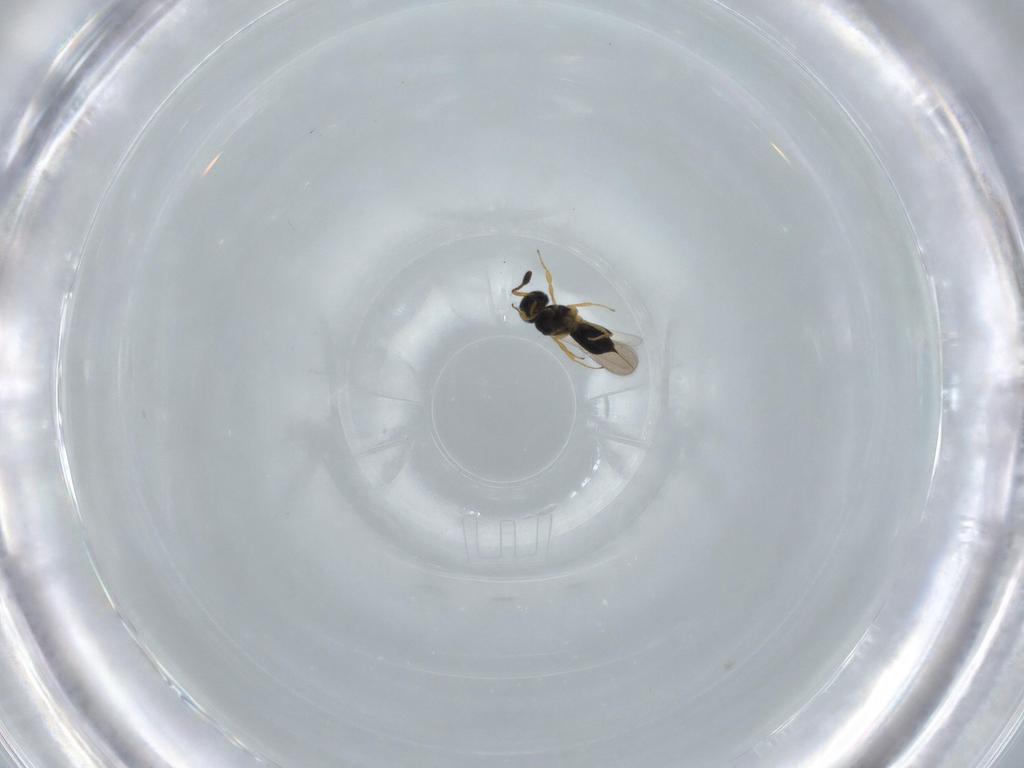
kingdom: Animalia
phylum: Arthropoda
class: Insecta
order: Hymenoptera
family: Scelionidae
